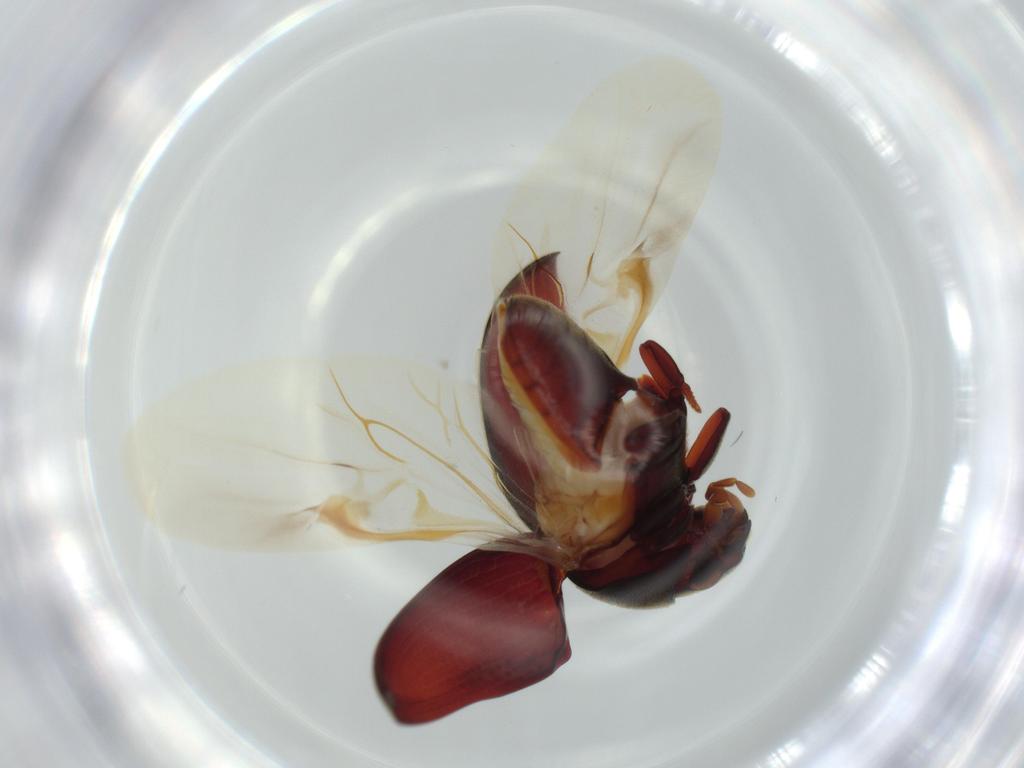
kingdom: Animalia
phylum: Arthropoda
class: Insecta
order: Coleoptera
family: Ptinidae
